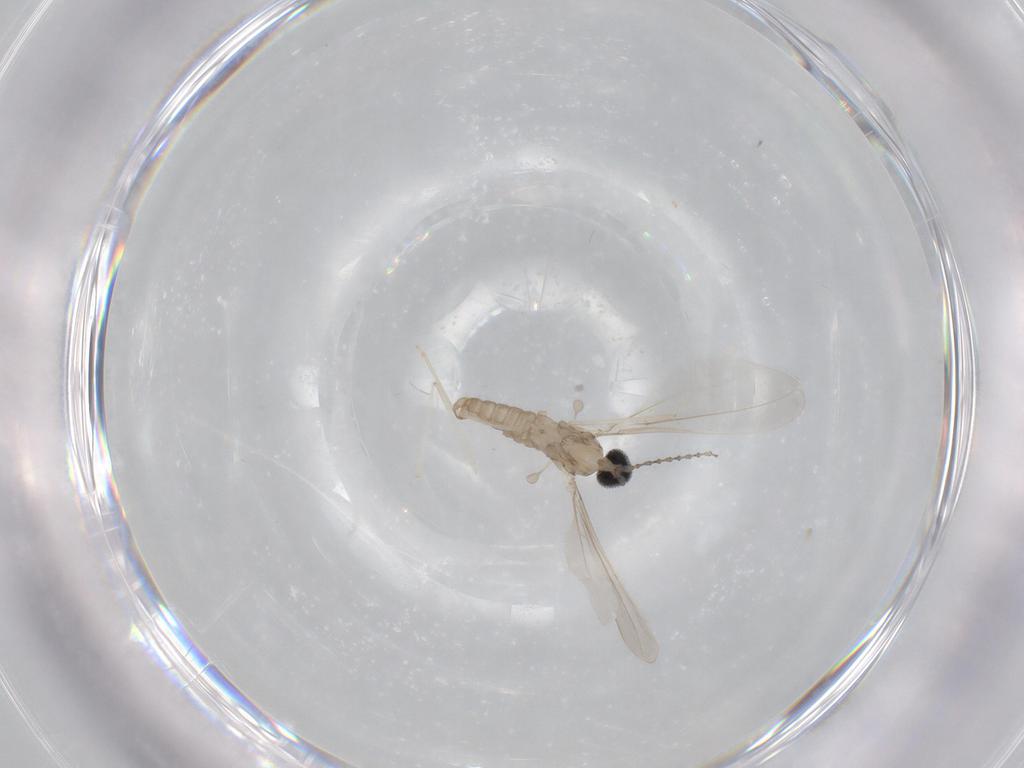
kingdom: Animalia
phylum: Arthropoda
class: Insecta
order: Diptera
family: Cecidomyiidae
